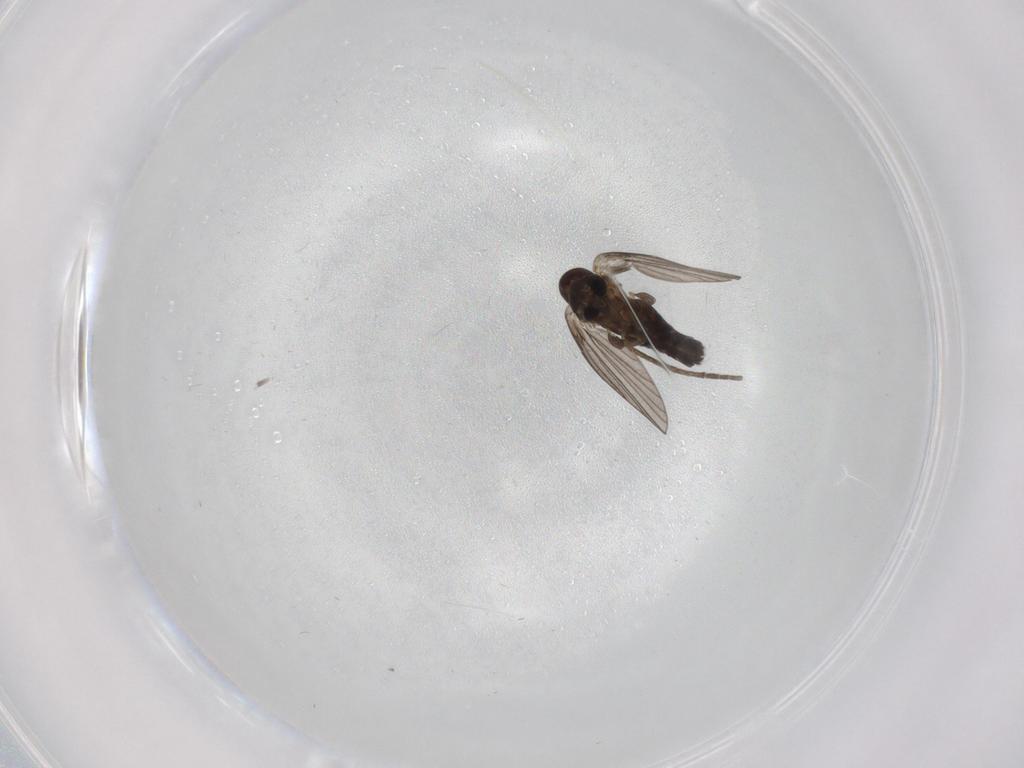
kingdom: Animalia
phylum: Arthropoda
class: Insecta
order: Diptera
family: Cecidomyiidae
